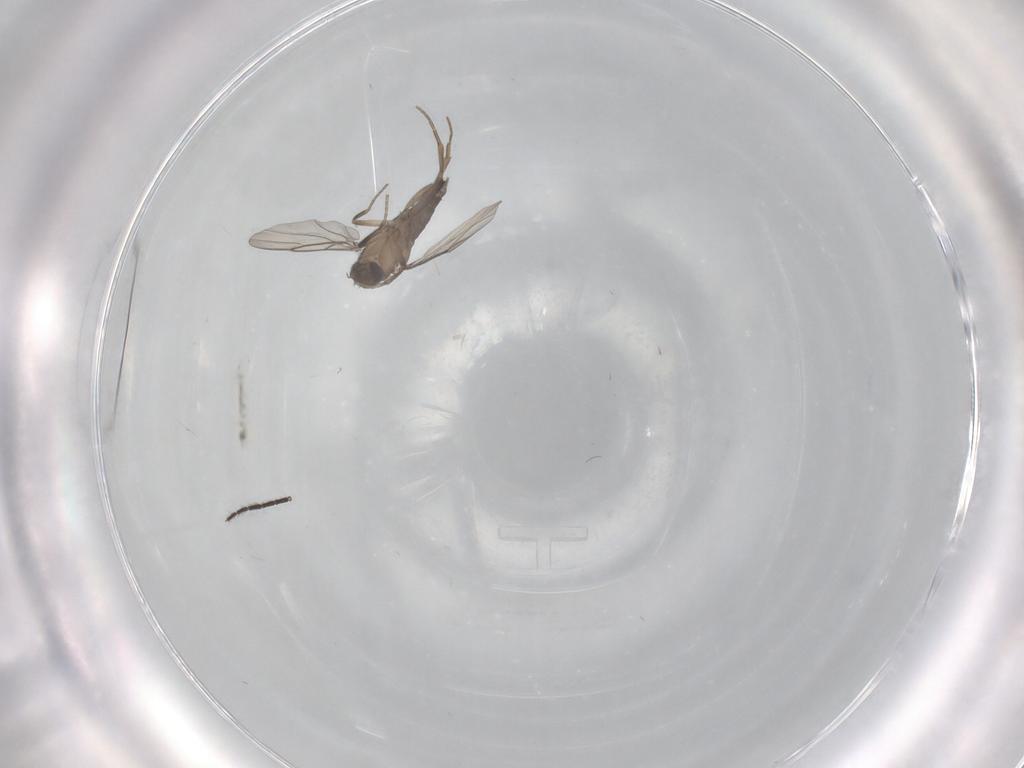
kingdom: Animalia
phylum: Arthropoda
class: Insecta
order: Diptera
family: Phoridae
